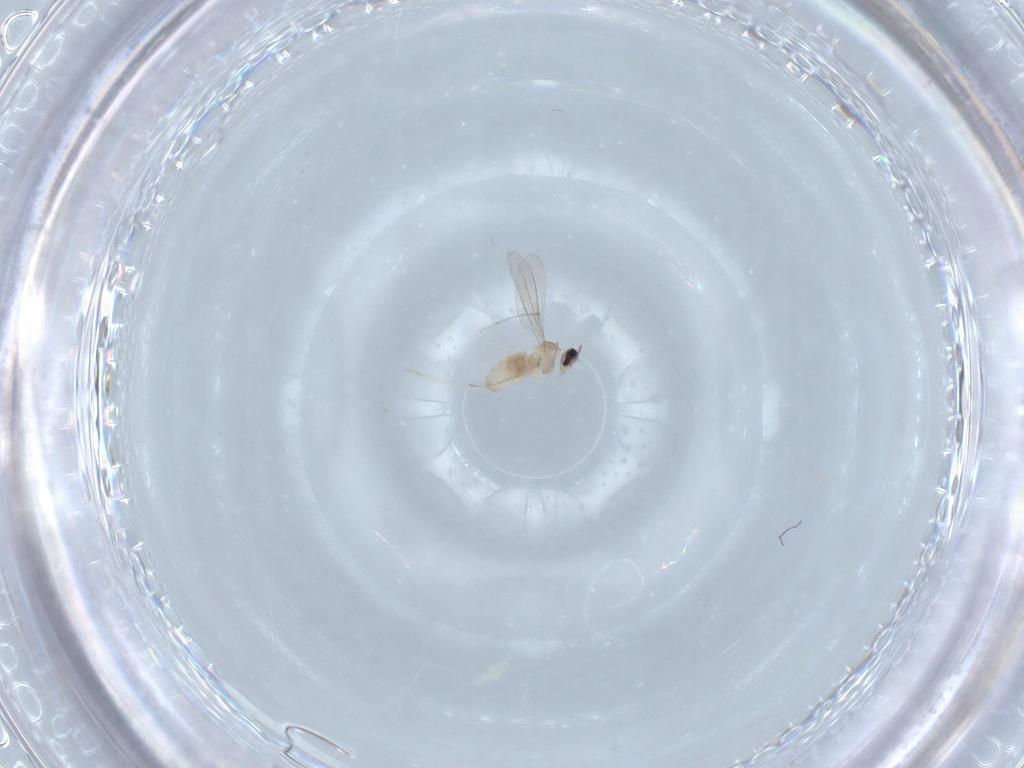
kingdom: Animalia
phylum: Arthropoda
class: Insecta
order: Diptera
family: Cecidomyiidae
